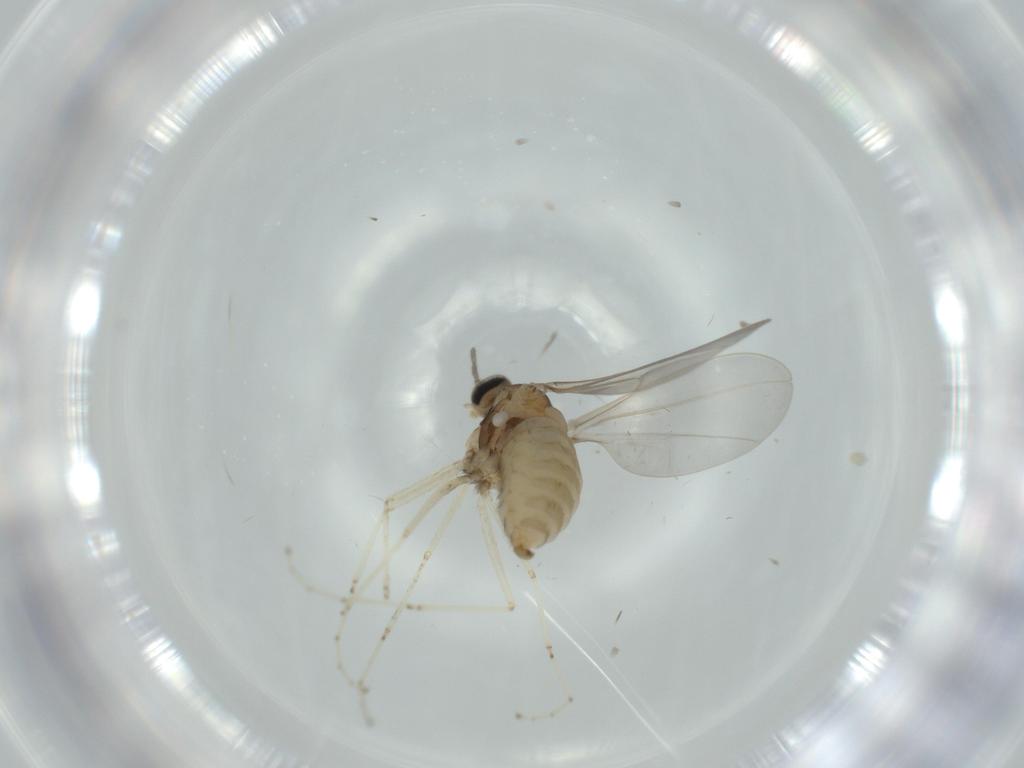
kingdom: Animalia
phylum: Arthropoda
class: Insecta
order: Diptera
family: Cecidomyiidae
